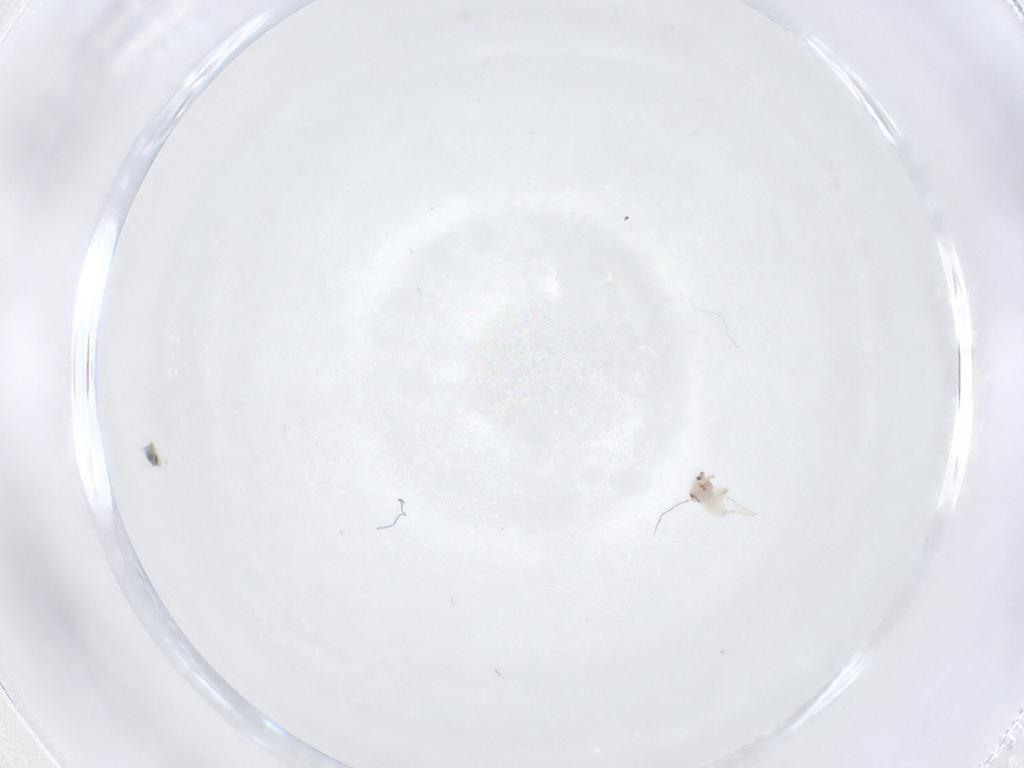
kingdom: Animalia
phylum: Arthropoda
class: Insecta
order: Psocodea
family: Lepidopsocidae
